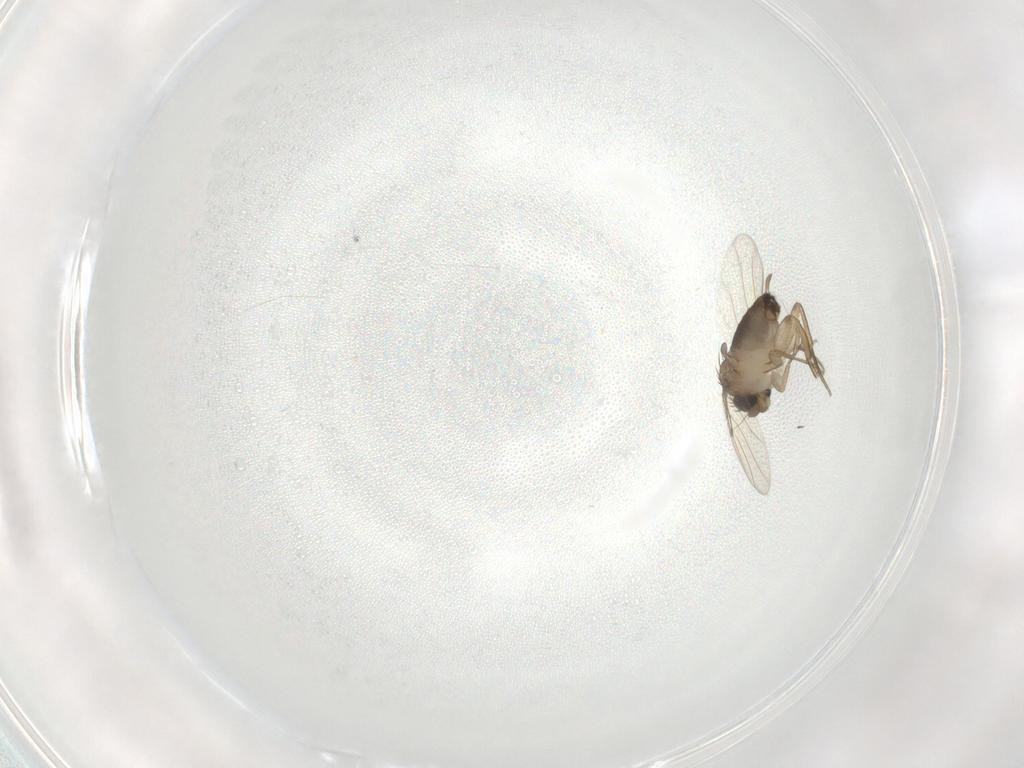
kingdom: Animalia
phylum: Arthropoda
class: Insecta
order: Diptera
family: Phoridae
